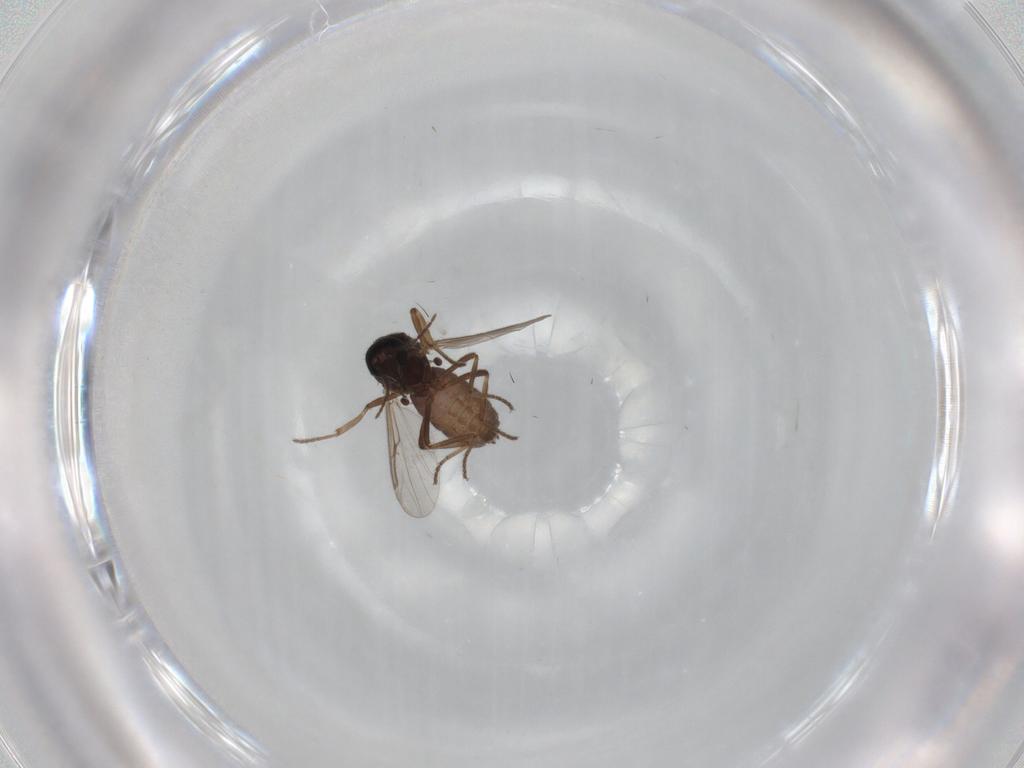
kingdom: Animalia
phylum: Arthropoda
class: Insecta
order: Diptera
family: Ceratopogonidae
